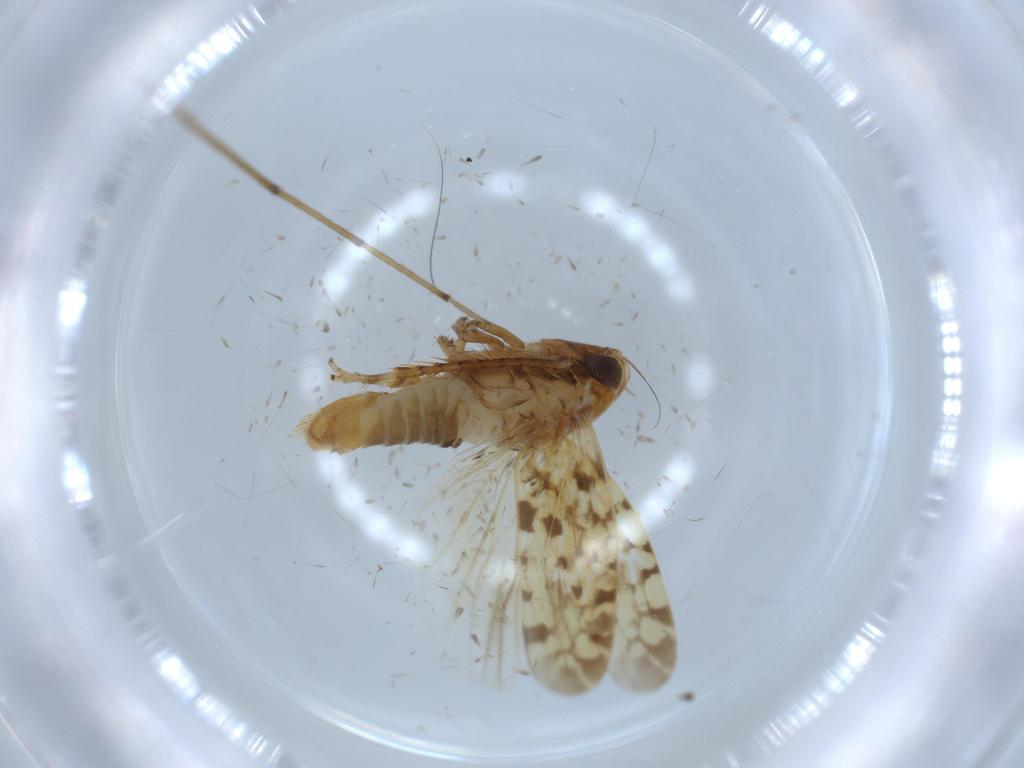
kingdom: Animalia
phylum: Arthropoda
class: Insecta
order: Hemiptera
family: Cicadellidae
